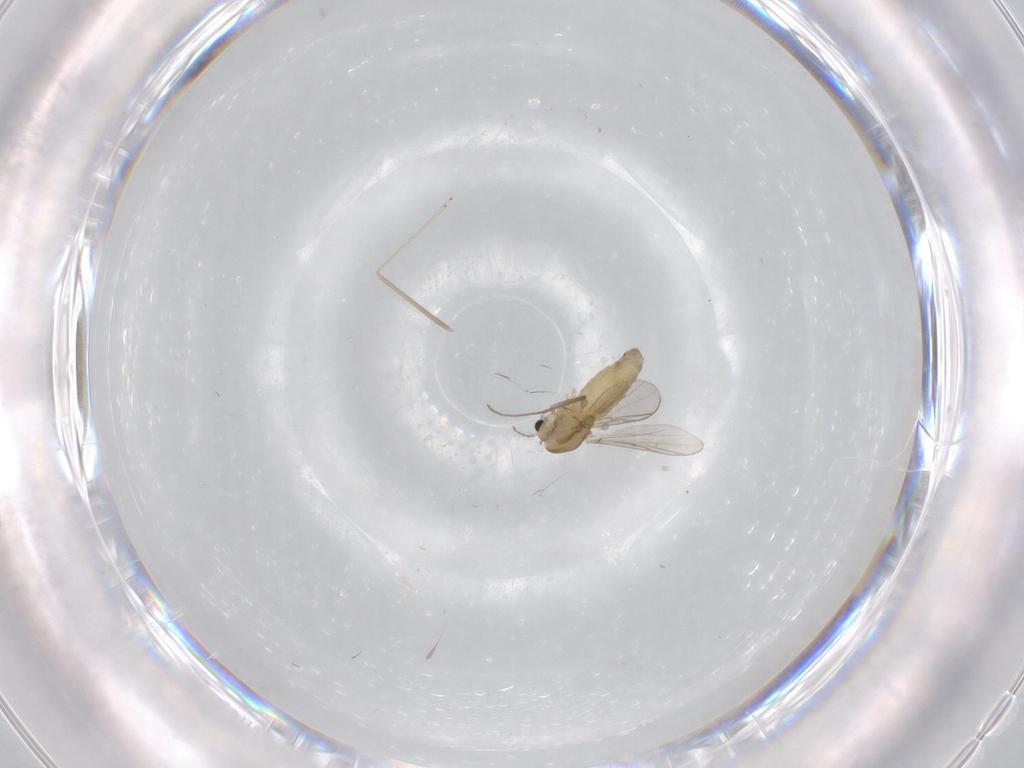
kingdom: Animalia
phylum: Arthropoda
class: Insecta
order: Diptera
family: Chironomidae
